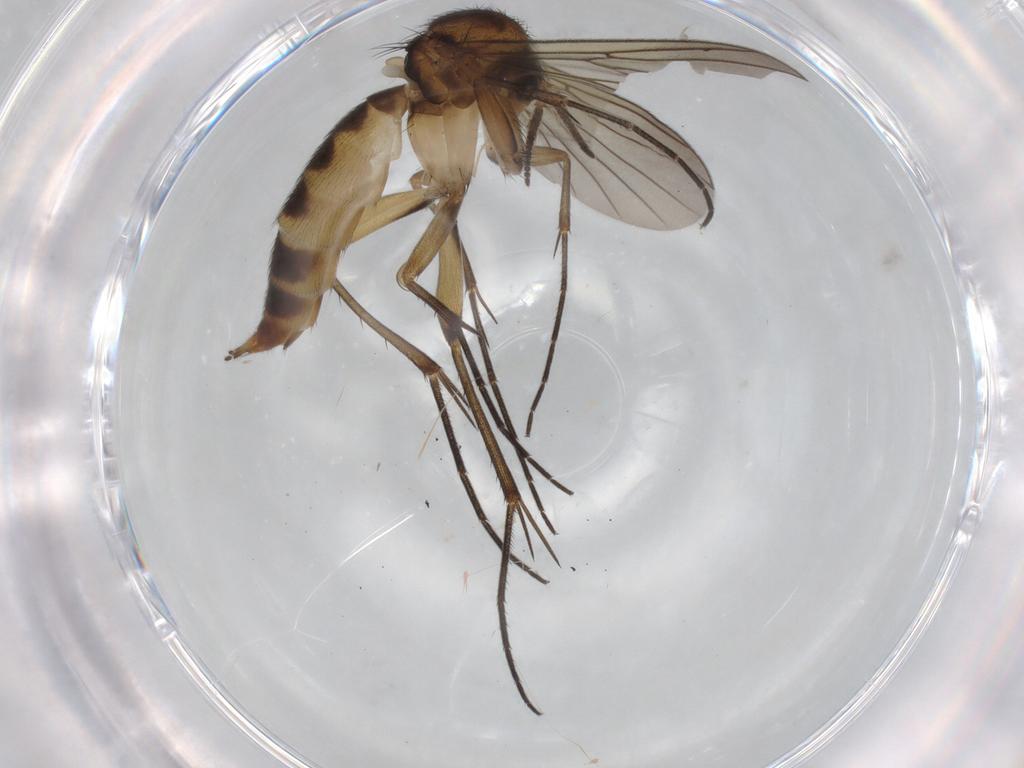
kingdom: Animalia
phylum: Arthropoda
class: Insecta
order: Diptera
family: Mycetophilidae
